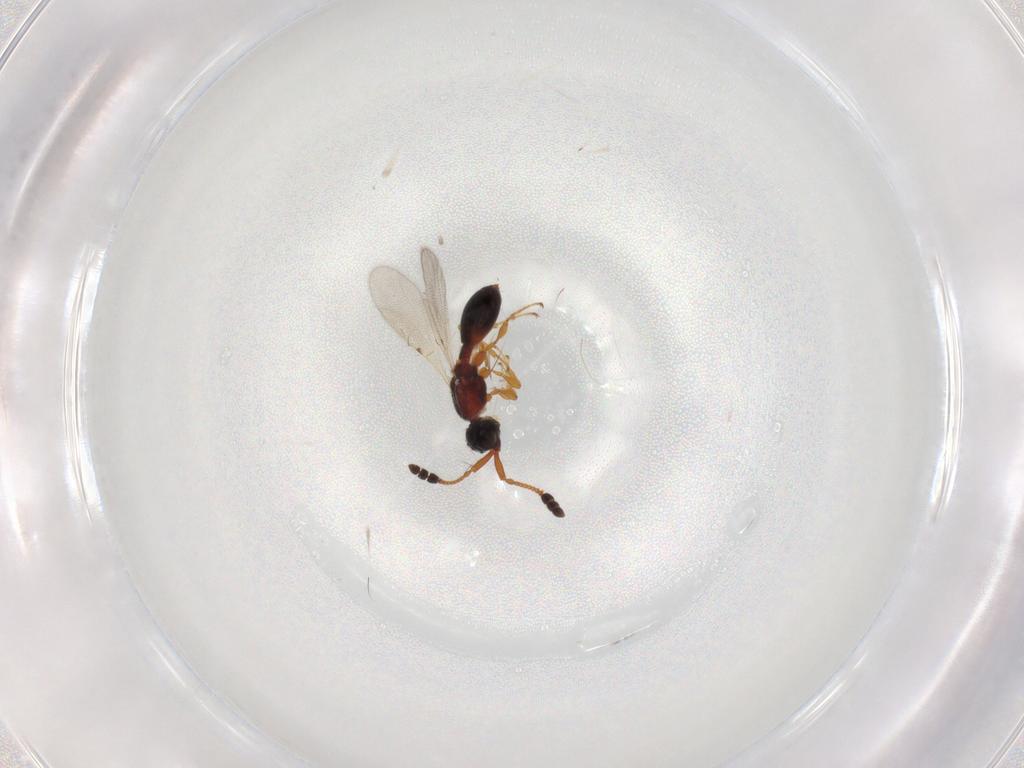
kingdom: Animalia
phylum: Arthropoda
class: Insecta
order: Hymenoptera
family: Diapriidae
